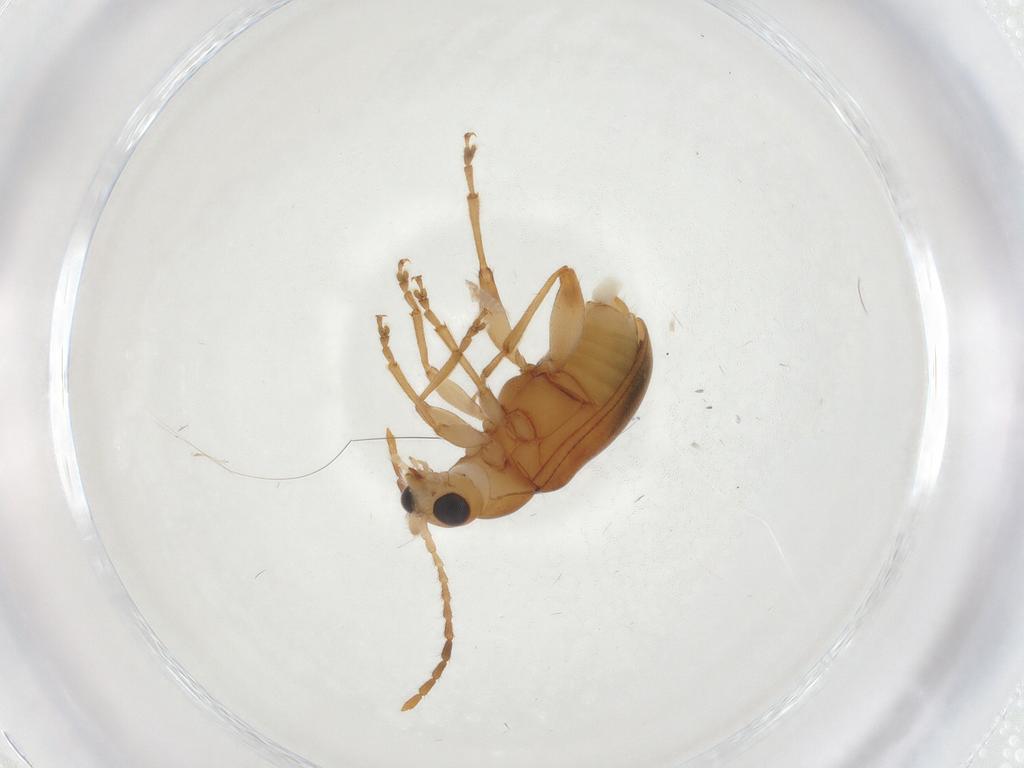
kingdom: Animalia
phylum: Arthropoda
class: Insecta
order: Coleoptera
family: Chrysomelidae
